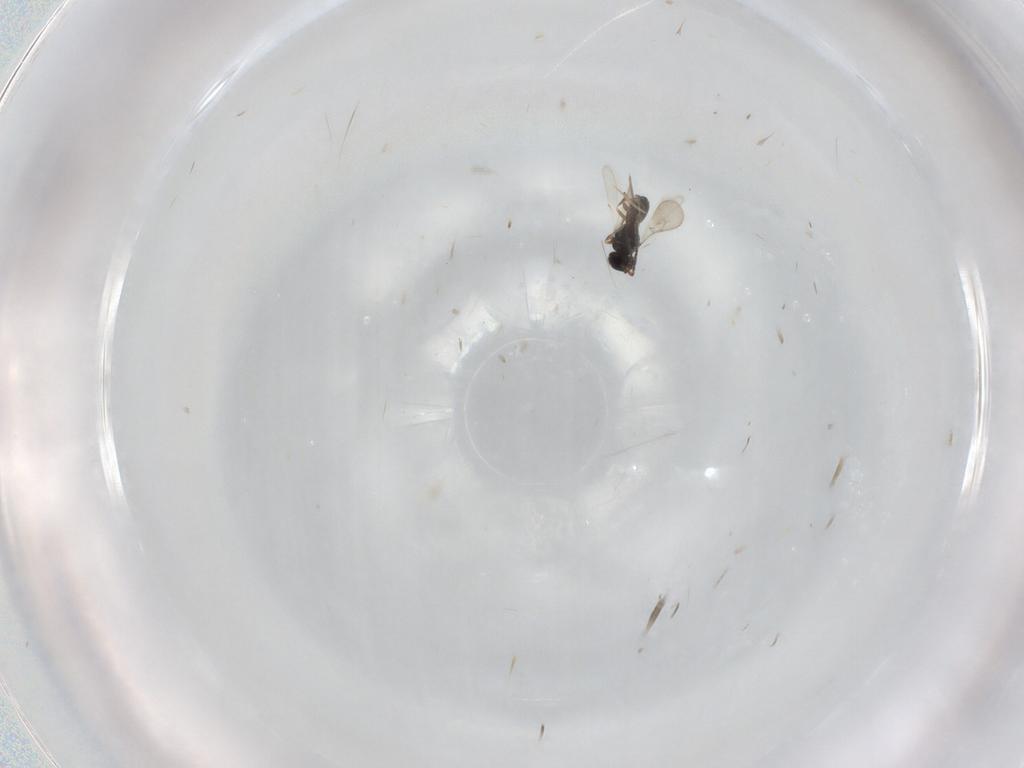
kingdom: Animalia
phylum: Arthropoda
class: Insecta
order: Hymenoptera
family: Scelionidae
